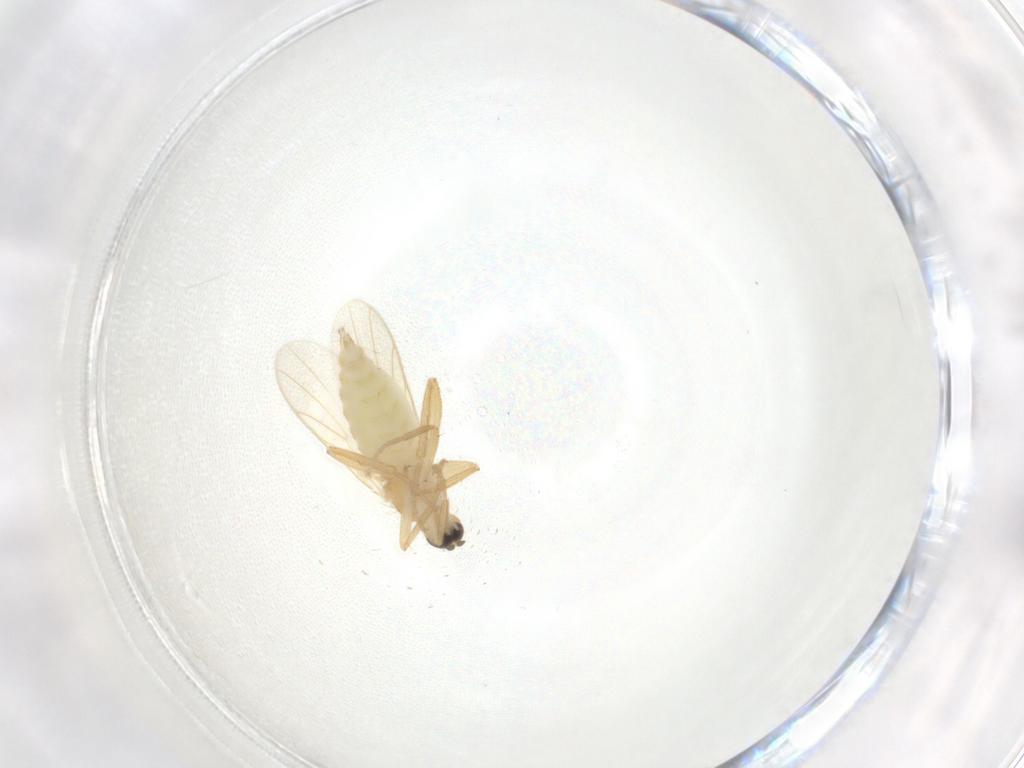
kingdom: Animalia
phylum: Arthropoda
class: Insecta
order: Diptera
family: Hybotidae
